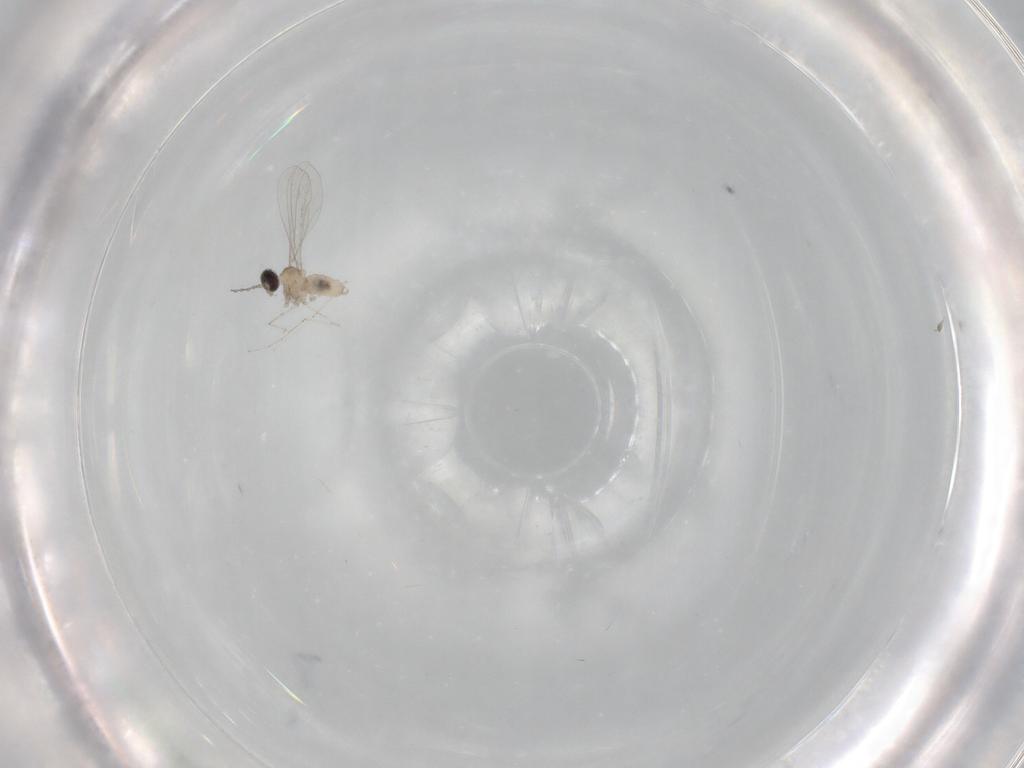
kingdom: Animalia
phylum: Arthropoda
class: Insecta
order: Diptera
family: Cecidomyiidae
